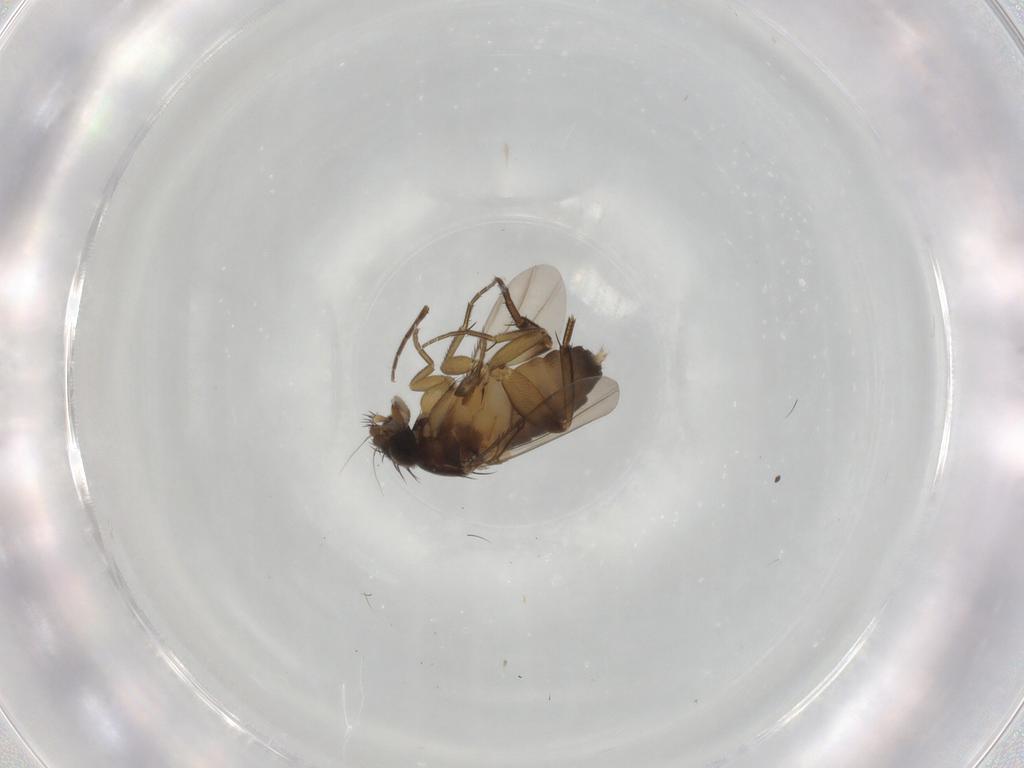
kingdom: Animalia
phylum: Arthropoda
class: Insecta
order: Diptera
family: Phoridae
